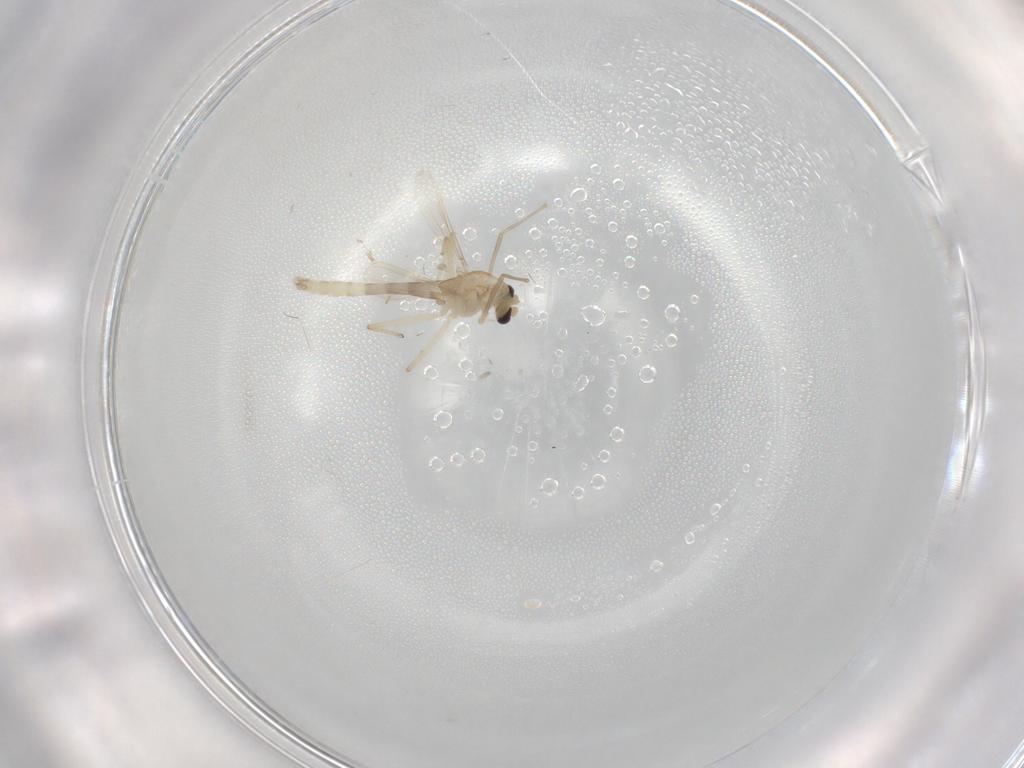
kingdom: Animalia
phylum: Arthropoda
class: Insecta
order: Diptera
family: Chironomidae
